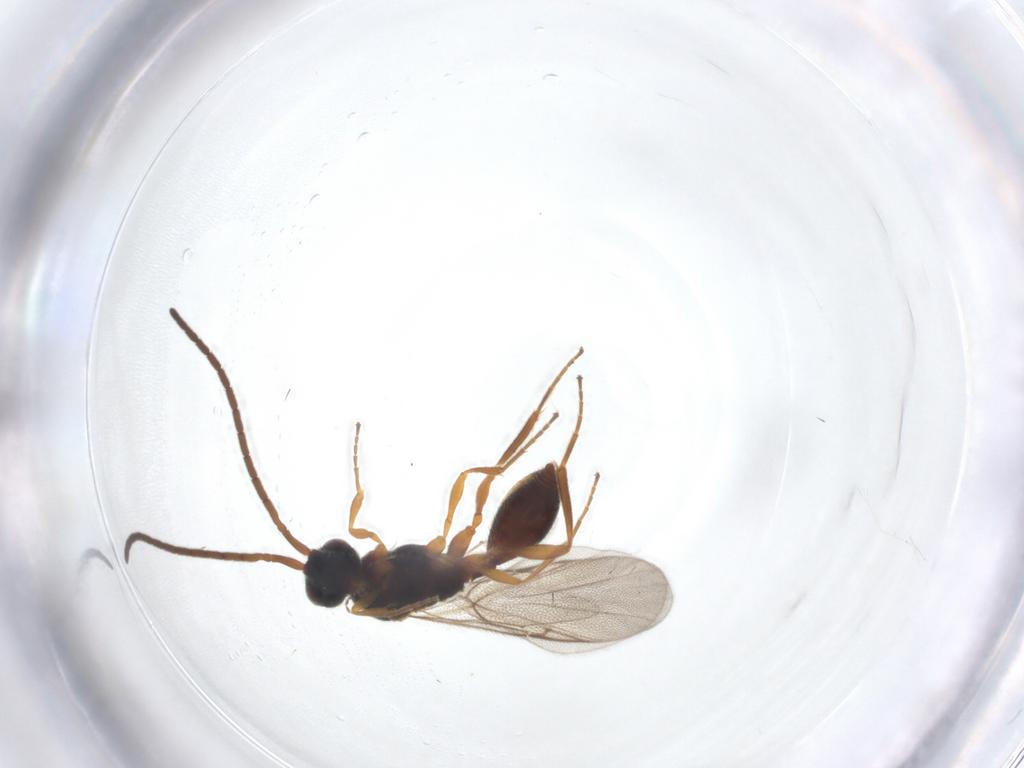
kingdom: Animalia
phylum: Arthropoda
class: Insecta
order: Hymenoptera
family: Diapriidae
